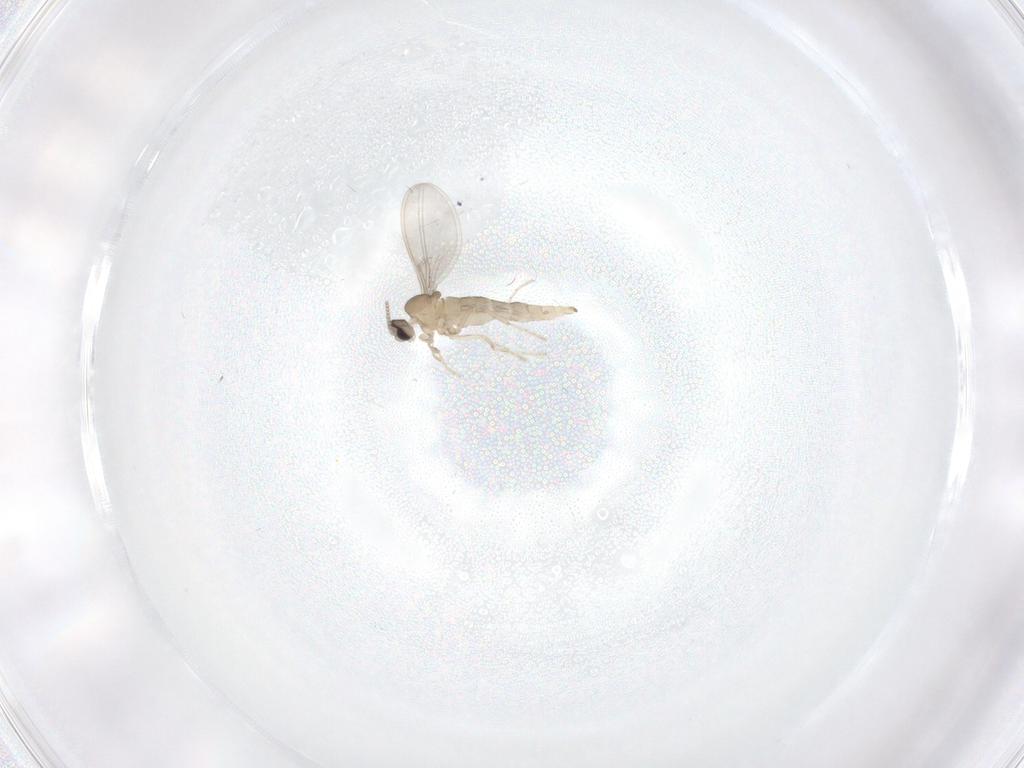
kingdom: Animalia
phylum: Arthropoda
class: Insecta
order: Diptera
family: Cecidomyiidae
